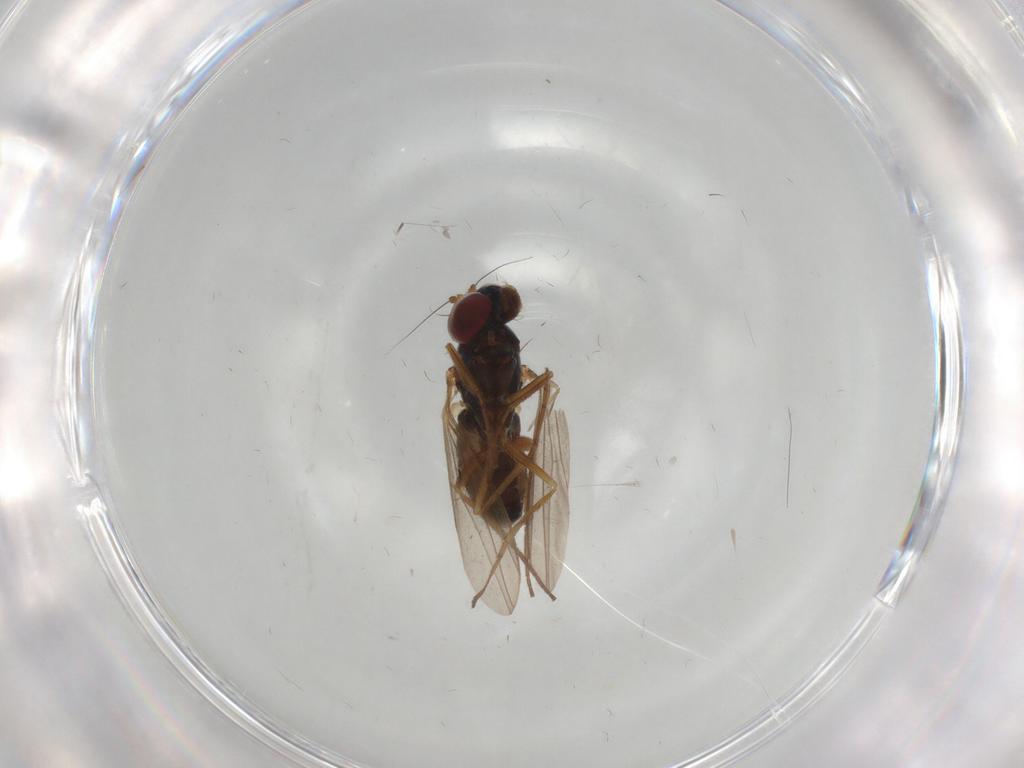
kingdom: Animalia
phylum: Arthropoda
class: Insecta
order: Diptera
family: Dolichopodidae
